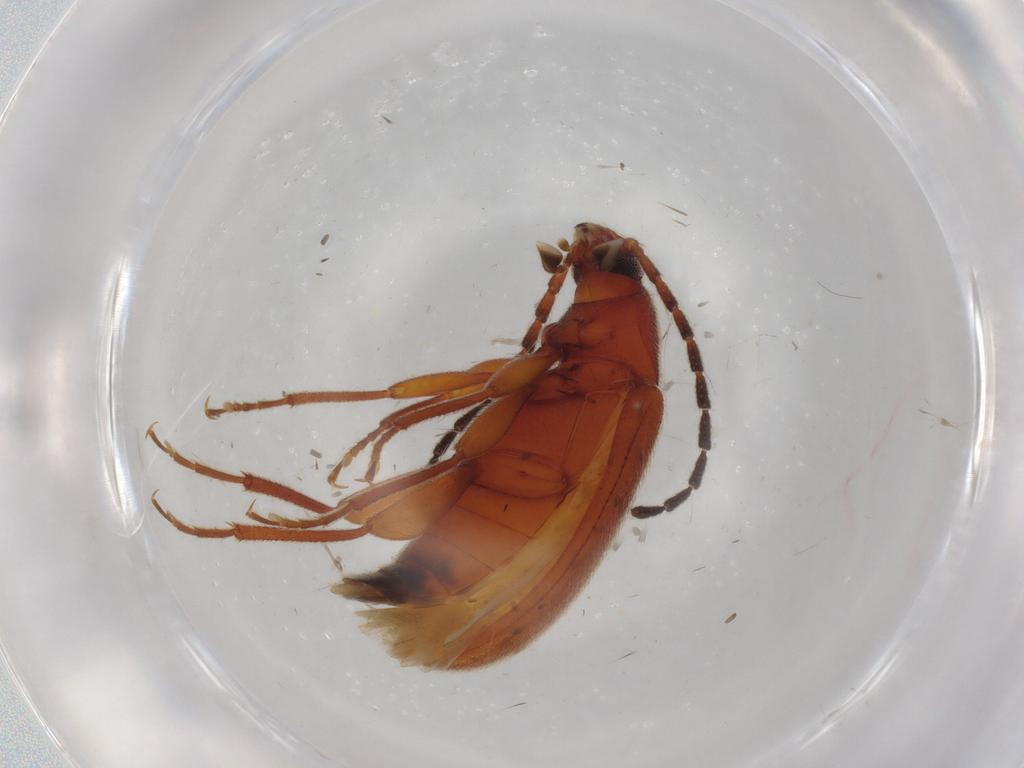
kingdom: Animalia
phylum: Arthropoda
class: Insecta
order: Coleoptera
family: Tenebrionidae
